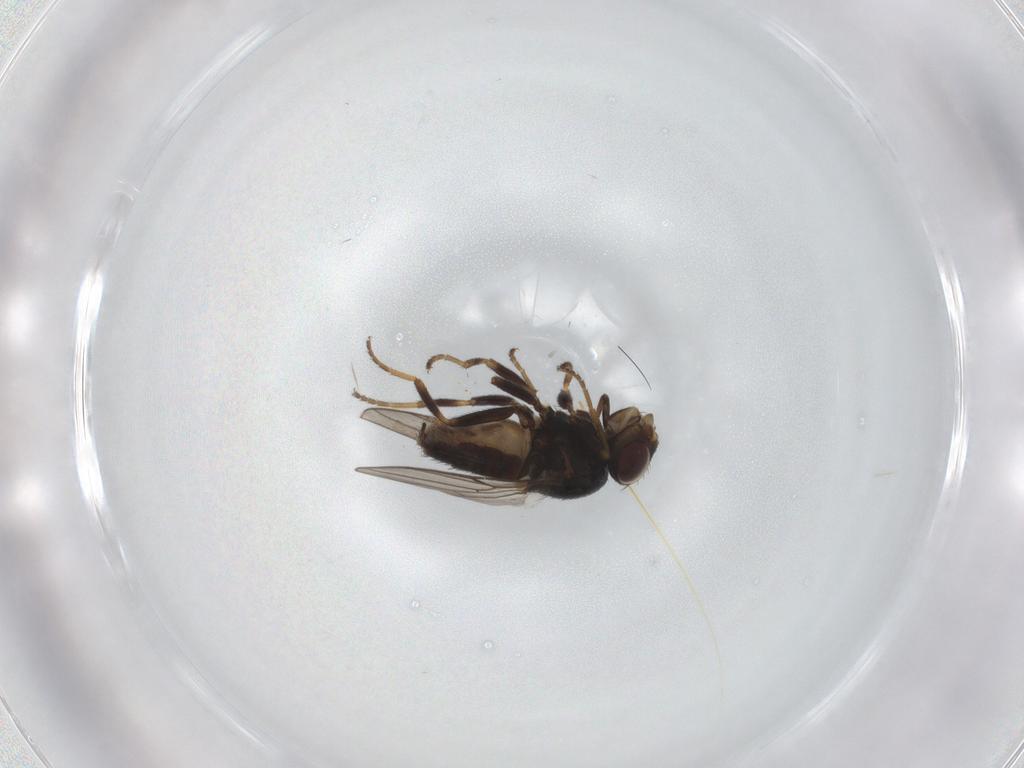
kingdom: Animalia
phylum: Arthropoda
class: Insecta
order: Diptera
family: Chloropidae
